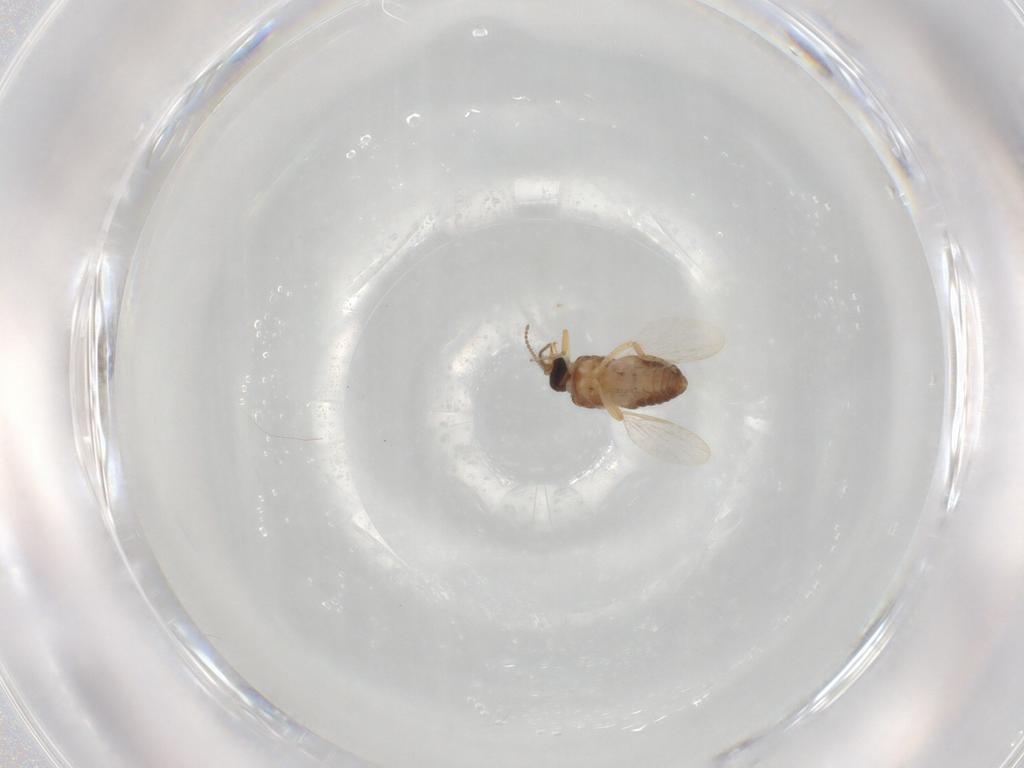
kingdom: Animalia
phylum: Arthropoda
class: Insecta
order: Diptera
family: Ceratopogonidae
